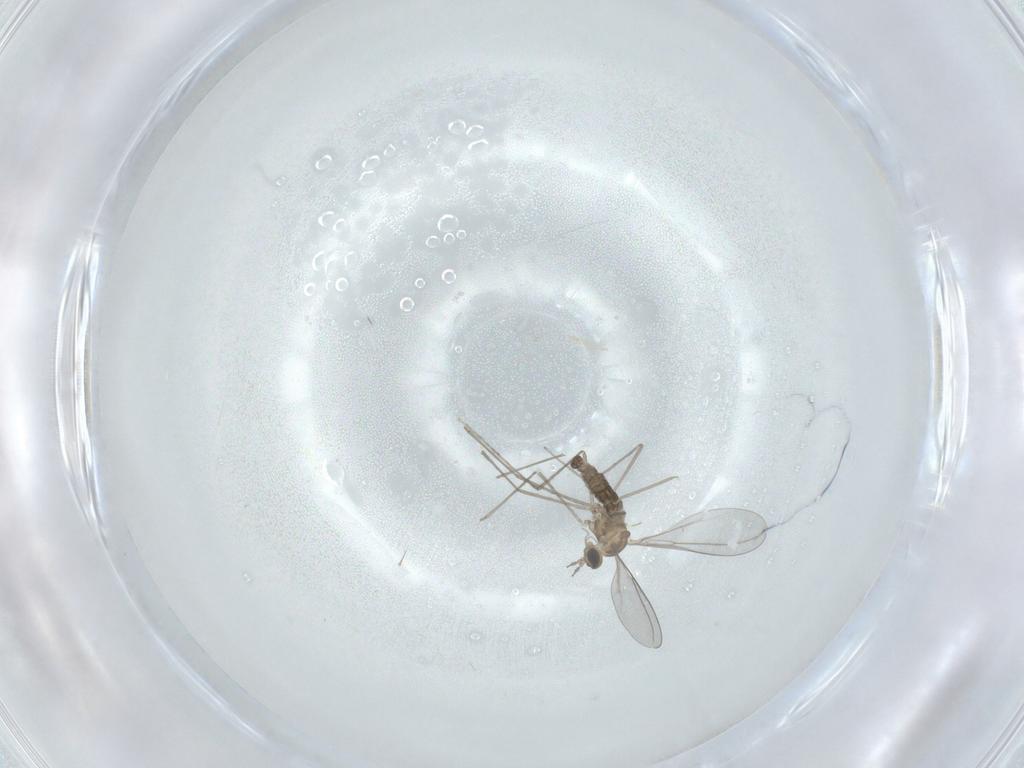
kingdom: Animalia
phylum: Arthropoda
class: Insecta
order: Diptera
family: Cecidomyiidae
